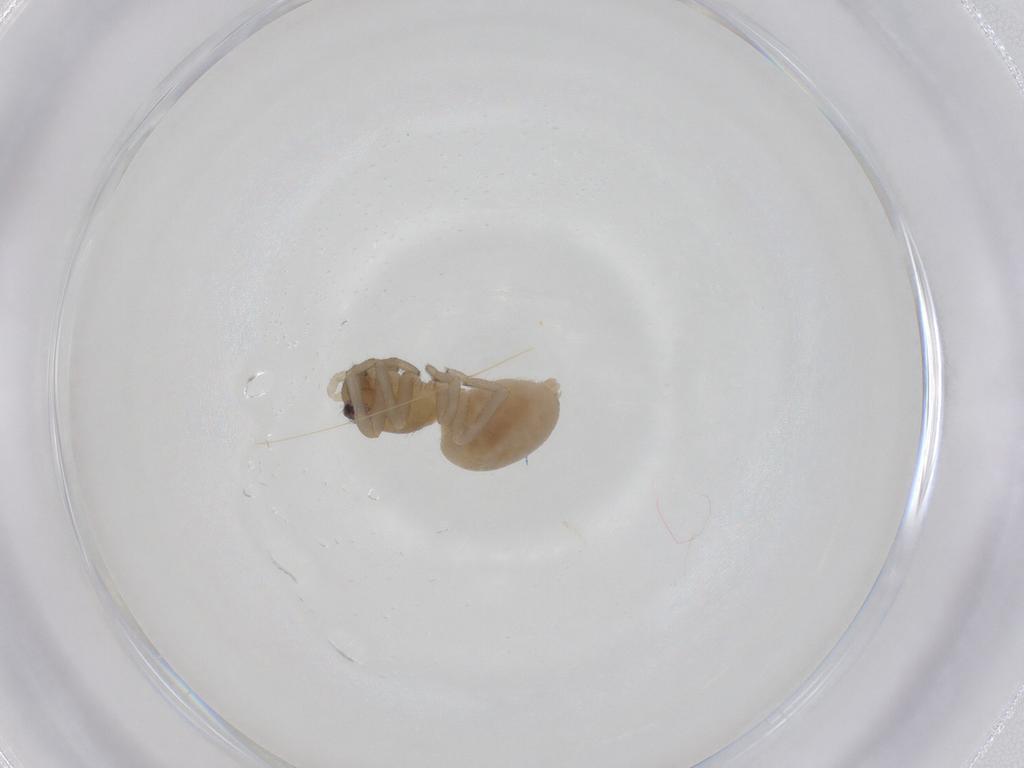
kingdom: Animalia
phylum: Arthropoda
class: Arachnida
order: Araneae
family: Trachelidae
